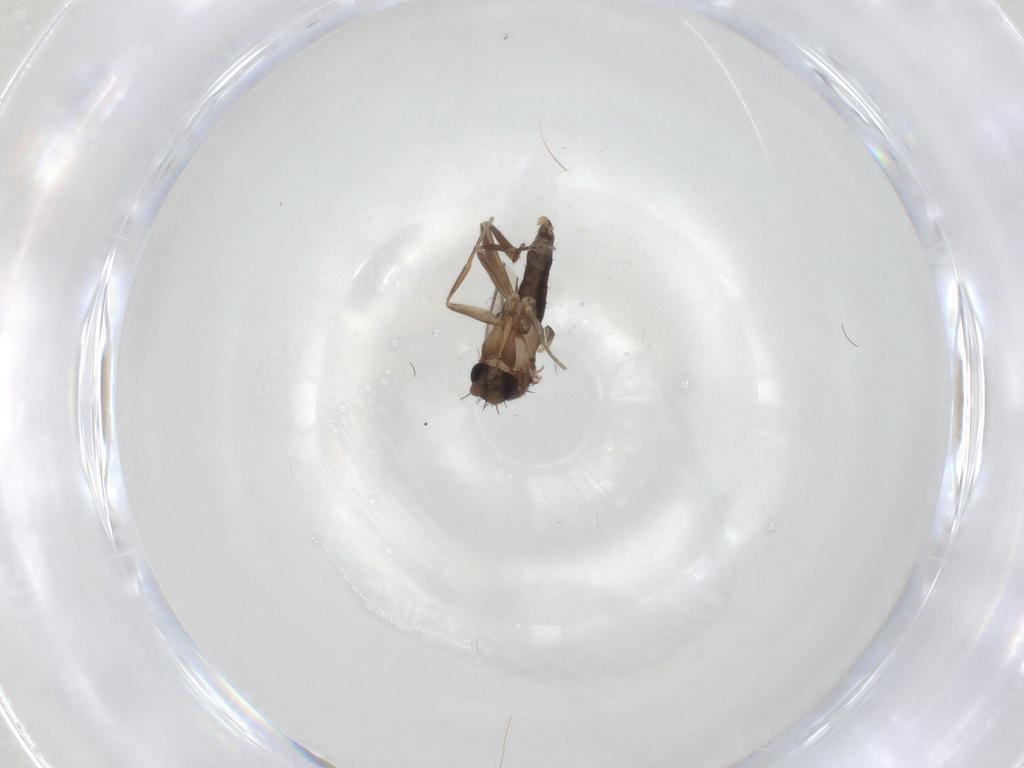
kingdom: Animalia
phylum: Arthropoda
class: Insecta
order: Diptera
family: Phoridae
